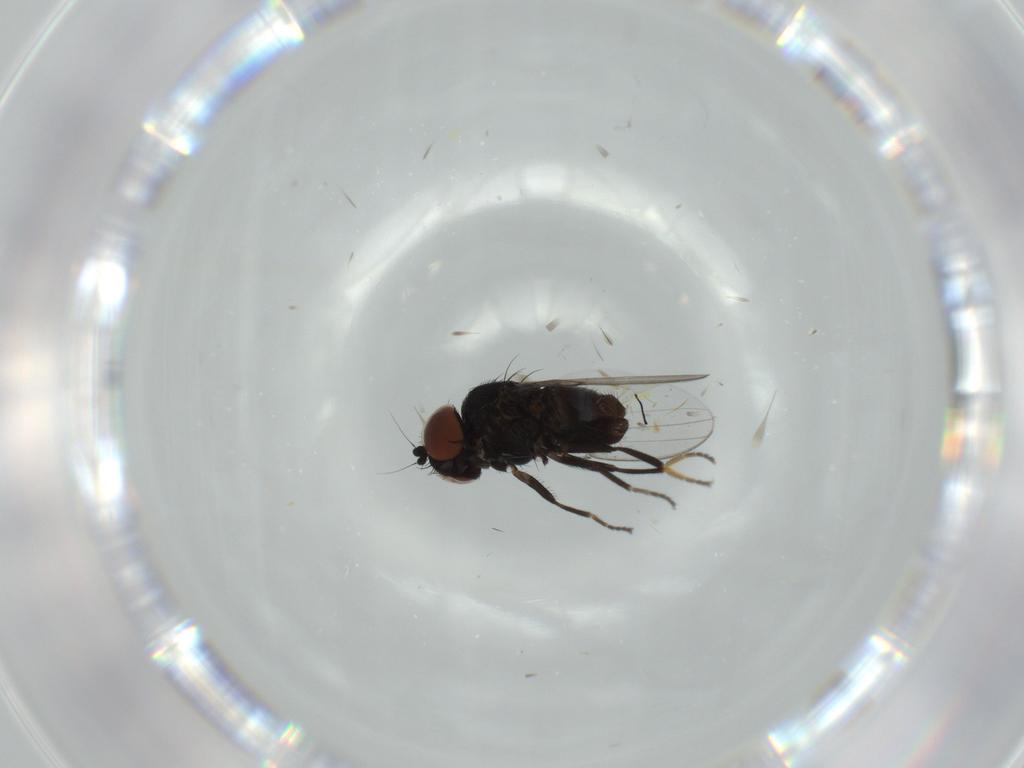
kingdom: Animalia
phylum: Arthropoda
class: Insecta
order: Diptera
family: Milichiidae
